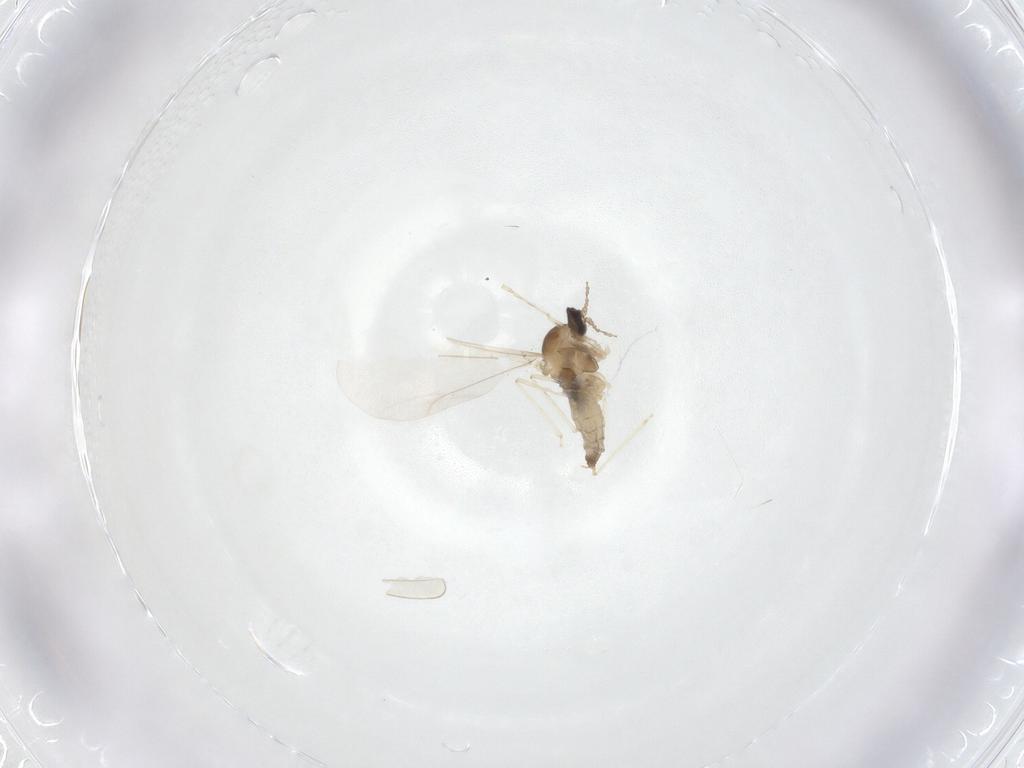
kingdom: Animalia
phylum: Arthropoda
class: Insecta
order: Diptera
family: Cecidomyiidae
